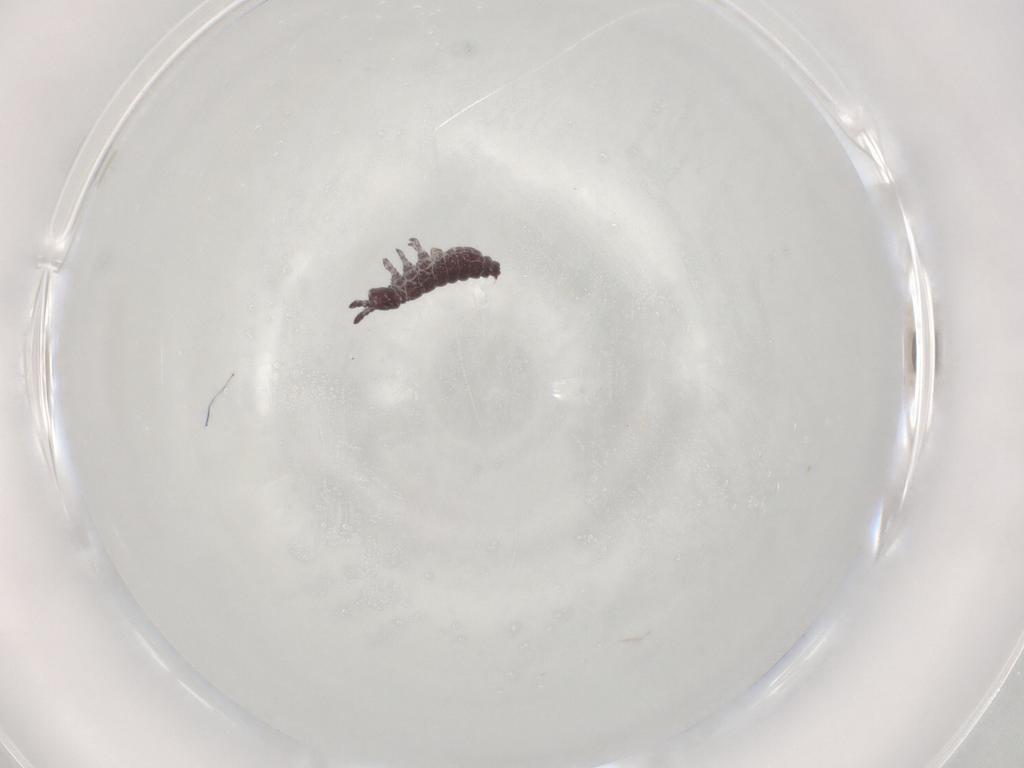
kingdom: Animalia
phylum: Arthropoda
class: Collembola
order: Poduromorpha
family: Hypogastruridae
